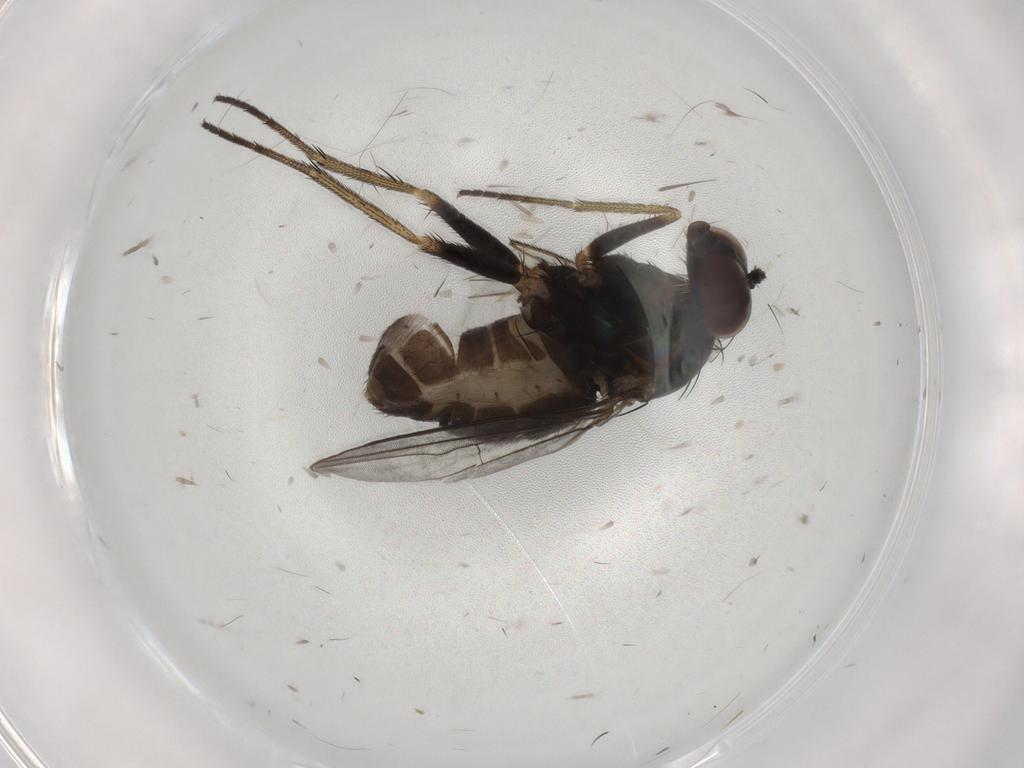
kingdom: Animalia
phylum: Arthropoda
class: Insecta
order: Diptera
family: Dolichopodidae
